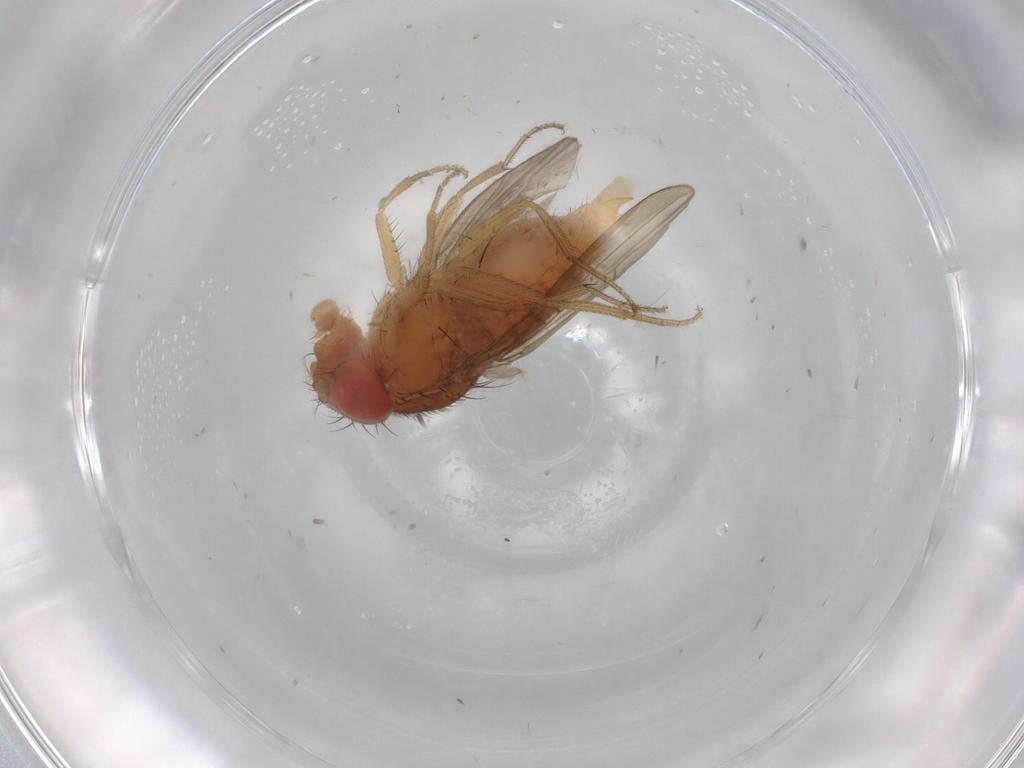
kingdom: Animalia
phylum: Arthropoda
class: Insecta
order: Diptera
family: Drosophilidae
